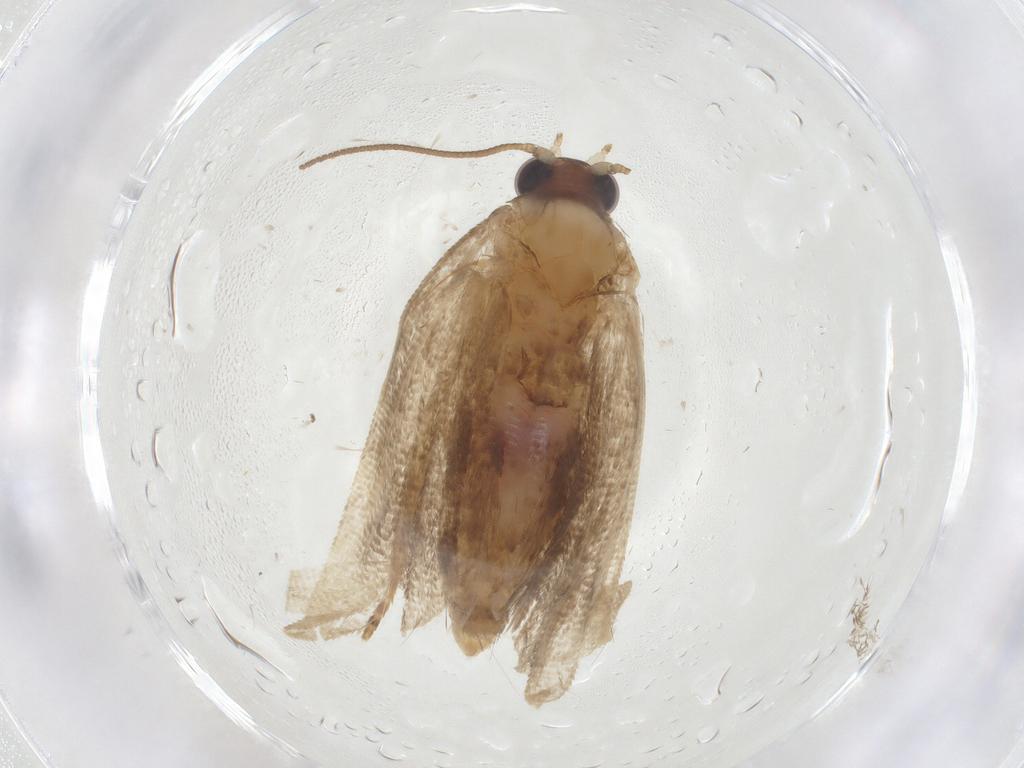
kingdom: Animalia
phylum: Arthropoda
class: Insecta
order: Lepidoptera
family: Tortricidae
